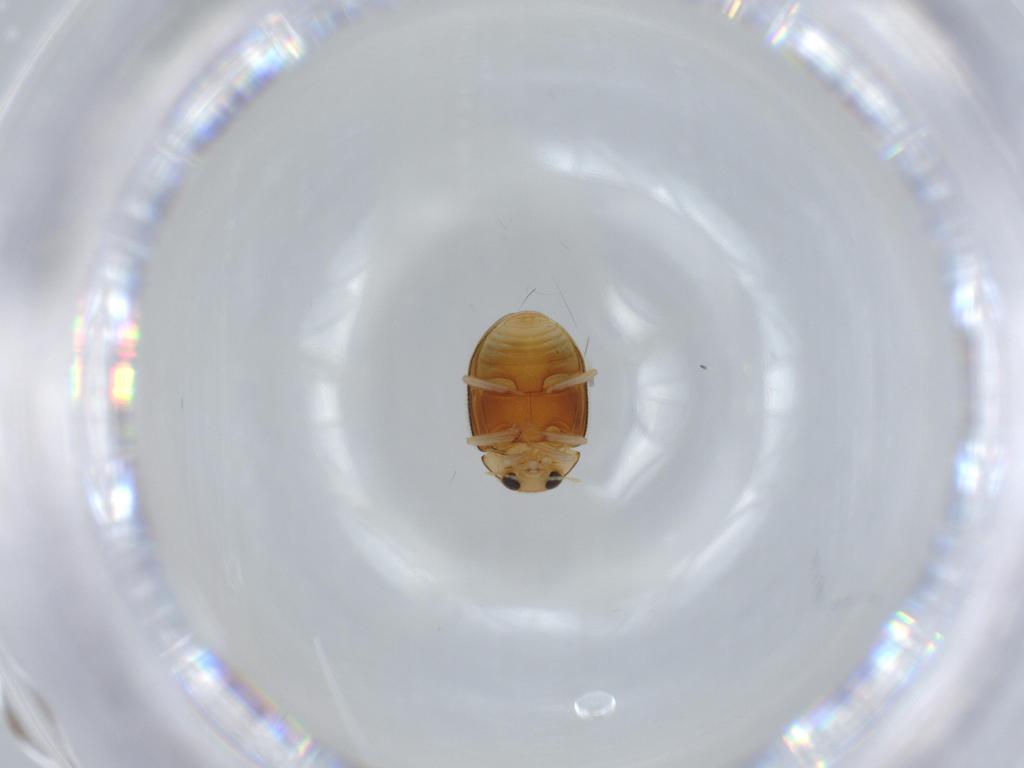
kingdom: Animalia
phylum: Arthropoda
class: Insecta
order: Coleoptera
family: Coccinellidae
